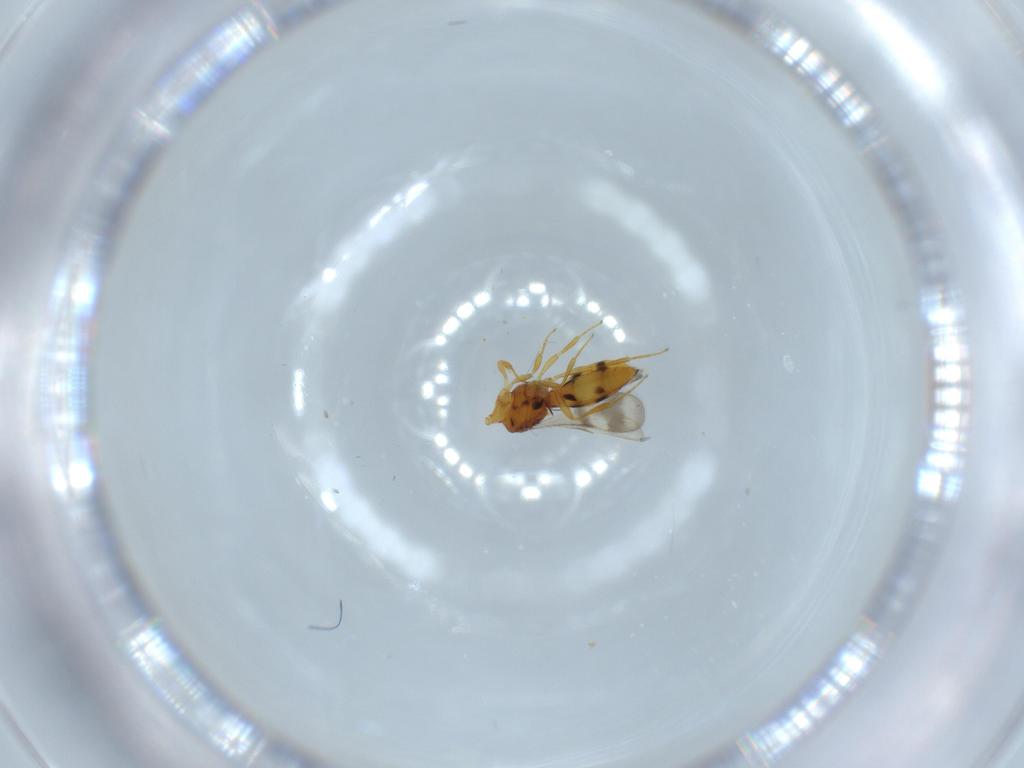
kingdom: Animalia
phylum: Arthropoda
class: Insecta
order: Hymenoptera
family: Scelionidae
